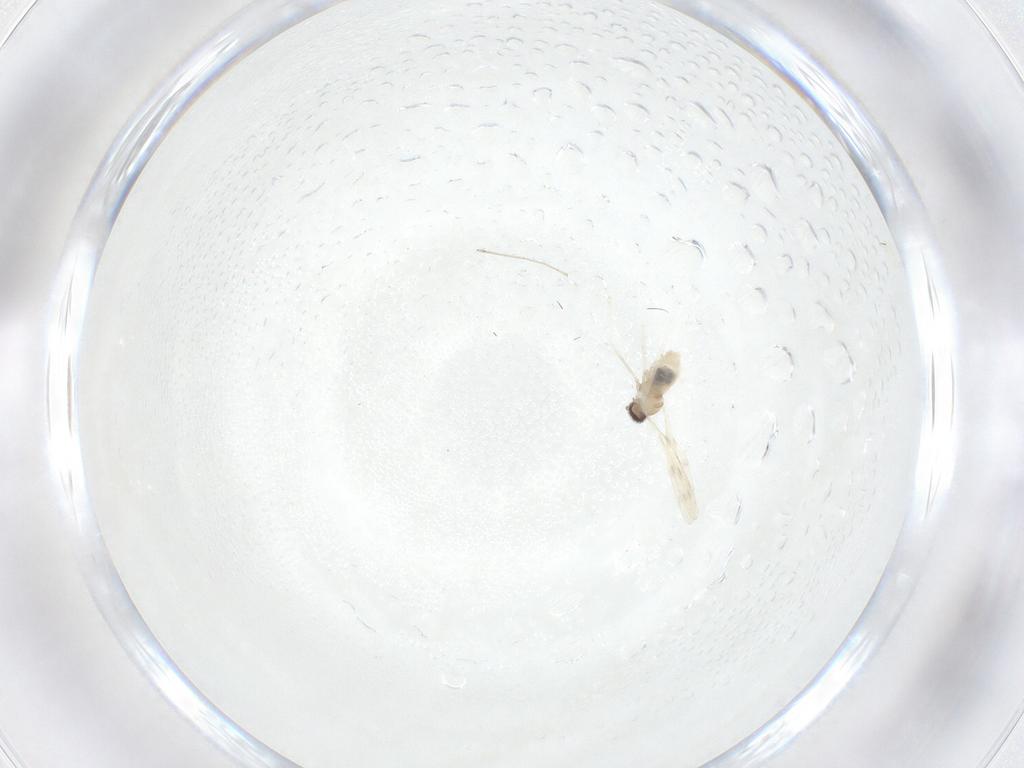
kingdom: Animalia
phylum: Arthropoda
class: Insecta
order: Diptera
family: Cecidomyiidae
